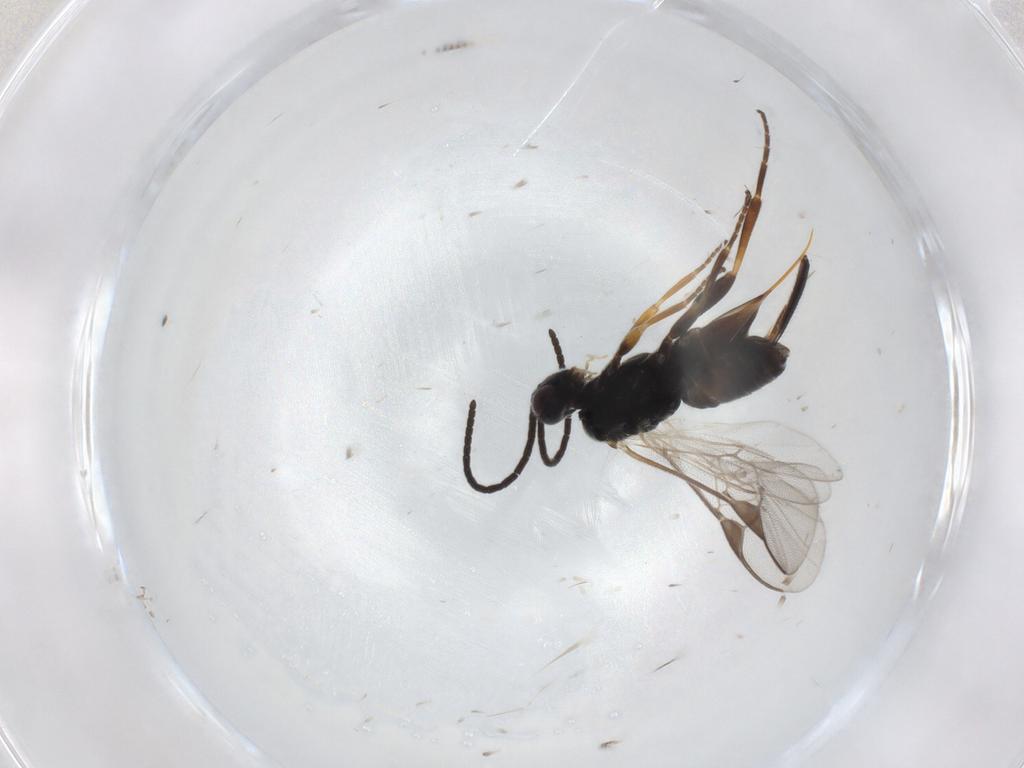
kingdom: Animalia
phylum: Arthropoda
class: Insecta
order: Hymenoptera
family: Braconidae
